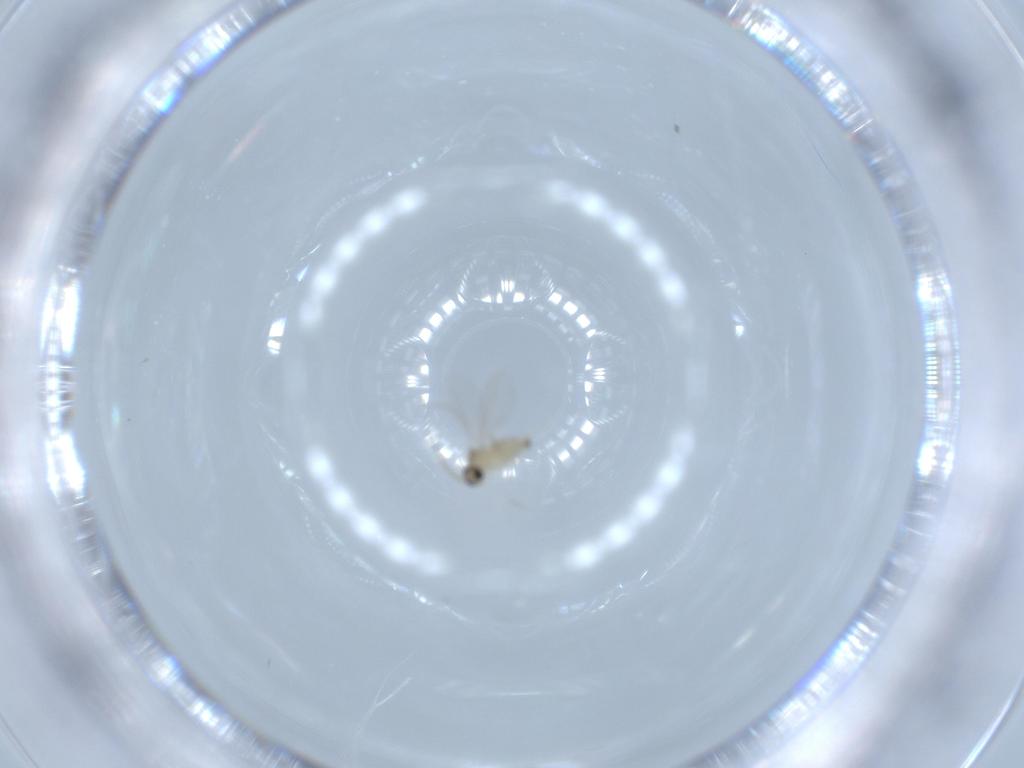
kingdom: Animalia
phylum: Arthropoda
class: Insecta
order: Diptera
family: Cecidomyiidae
